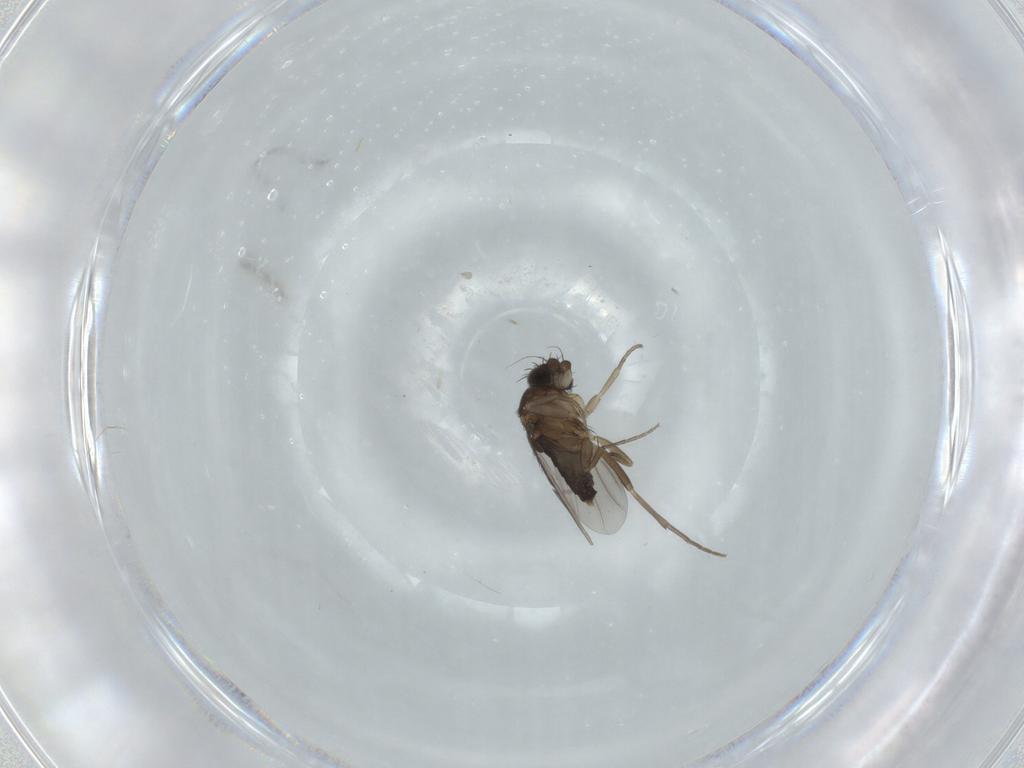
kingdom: Animalia
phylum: Arthropoda
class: Insecta
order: Diptera
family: Phoridae
